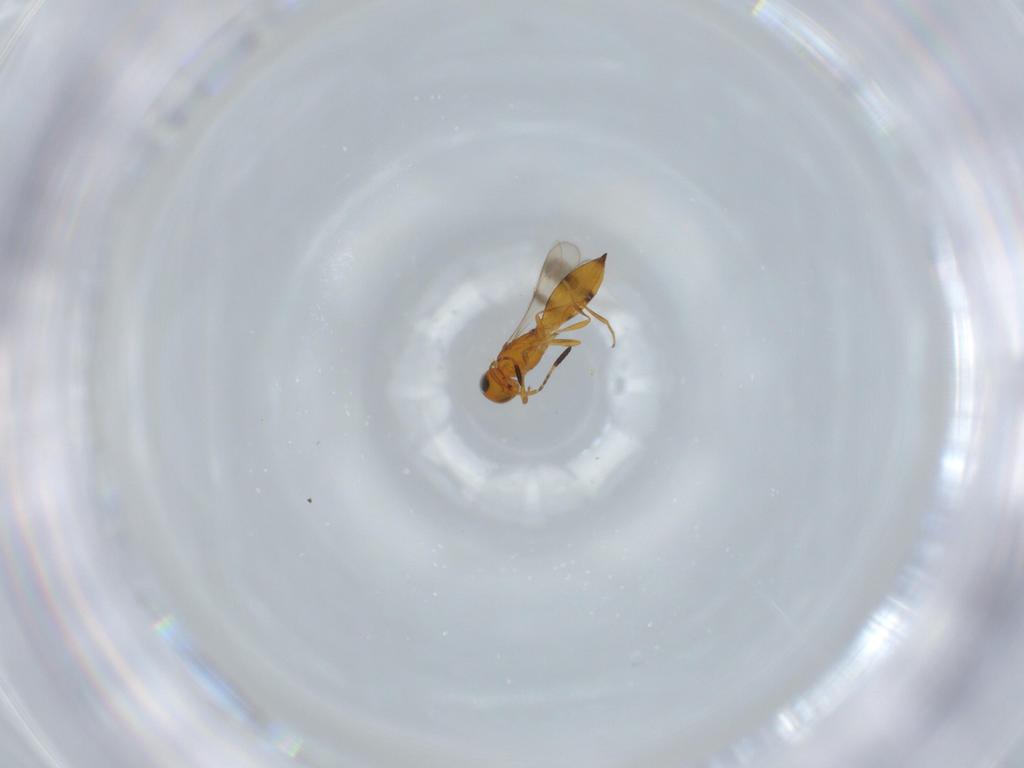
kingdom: Animalia
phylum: Arthropoda
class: Insecta
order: Hymenoptera
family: Scelionidae
